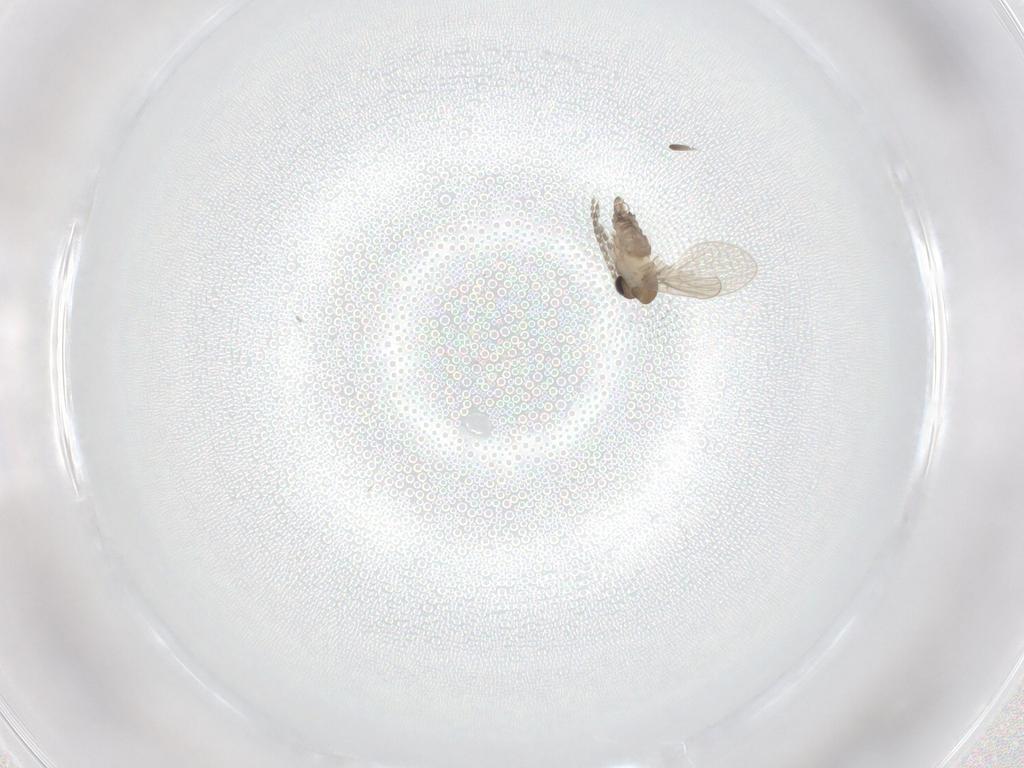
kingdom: Animalia
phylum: Arthropoda
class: Insecta
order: Diptera
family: Psychodidae
